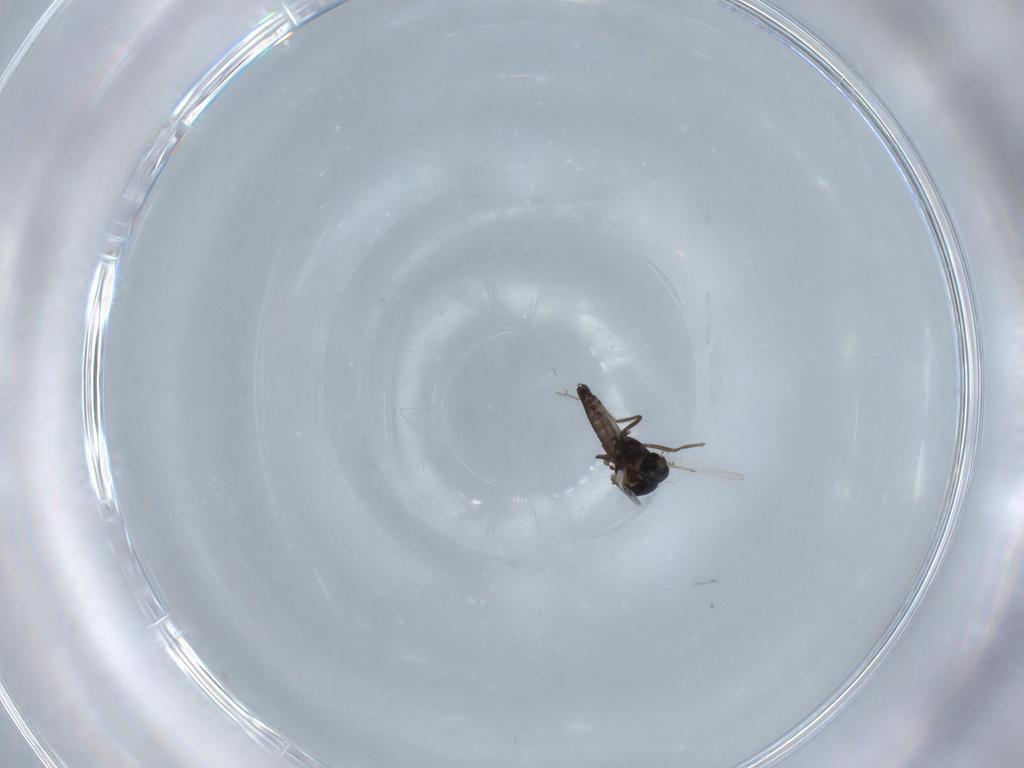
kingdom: Animalia
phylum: Arthropoda
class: Insecta
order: Diptera
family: Ceratopogonidae
